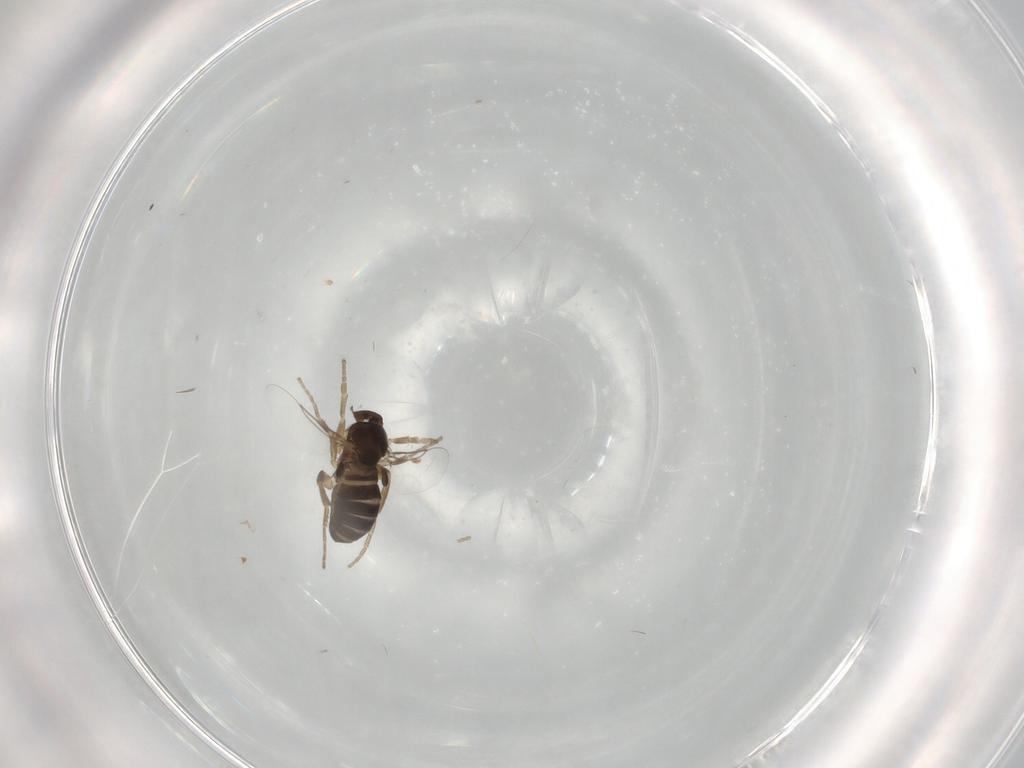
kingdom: Animalia
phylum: Arthropoda
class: Insecta
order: Diptera
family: Phoridae
